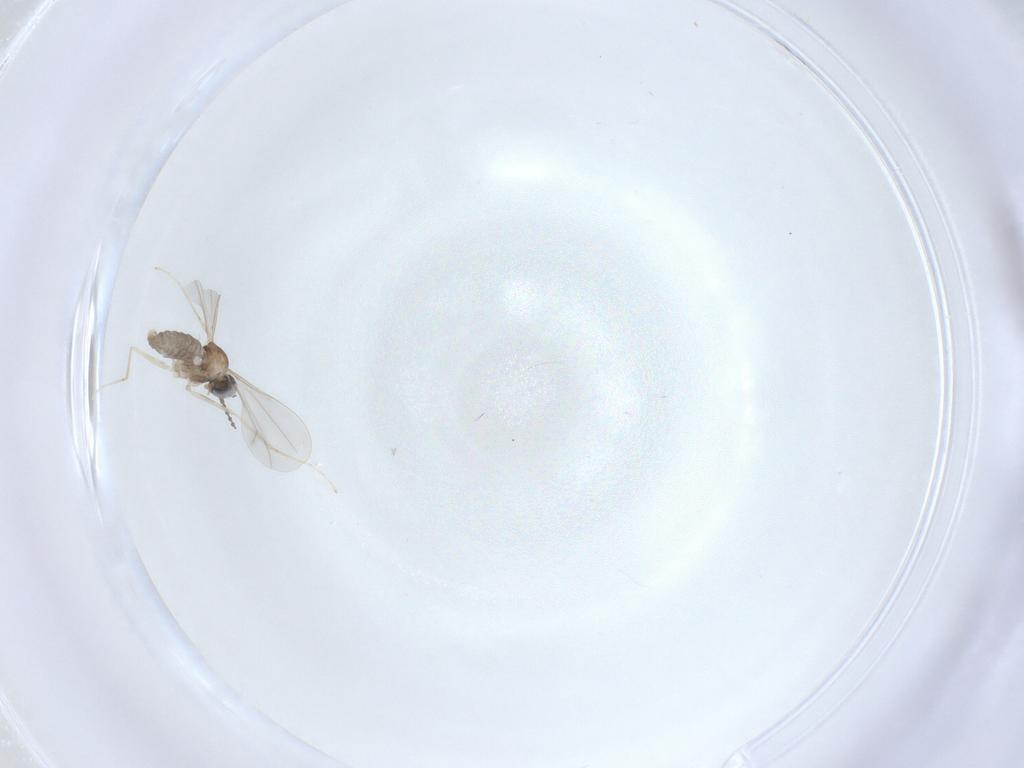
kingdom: Animalia
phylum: Arthropoda
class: Insecta
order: Diptera
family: Cecidomyiidae
